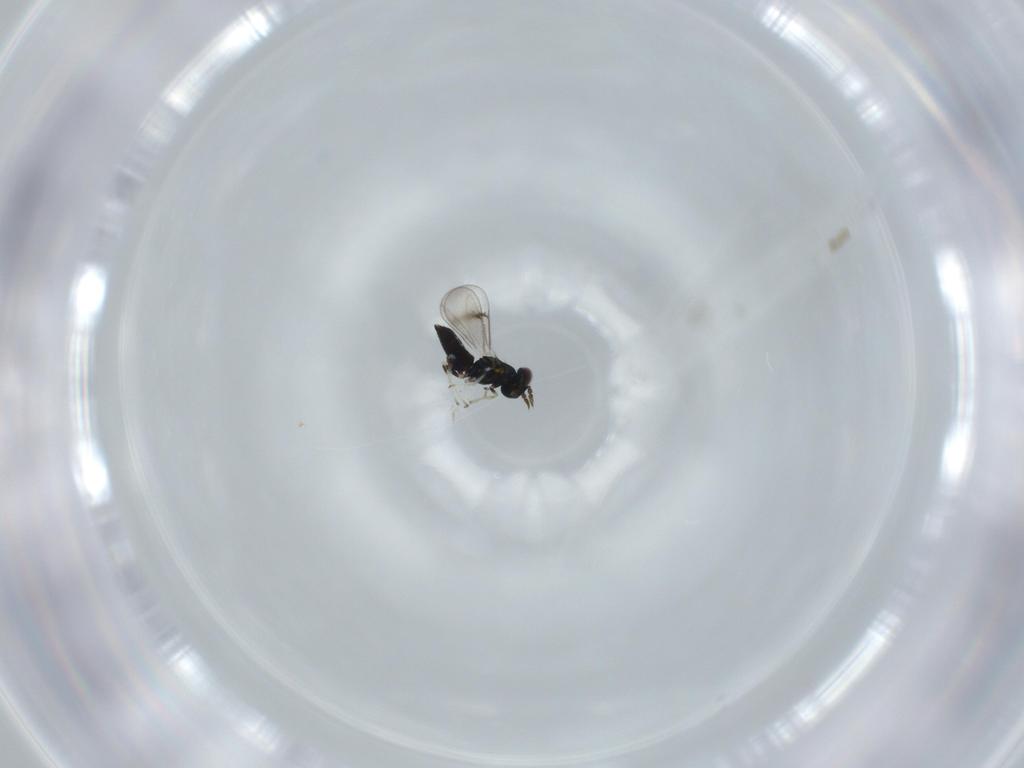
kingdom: Animalia
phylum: Arthropoda
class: Insecta
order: Hymenoptera
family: Eulophidae
